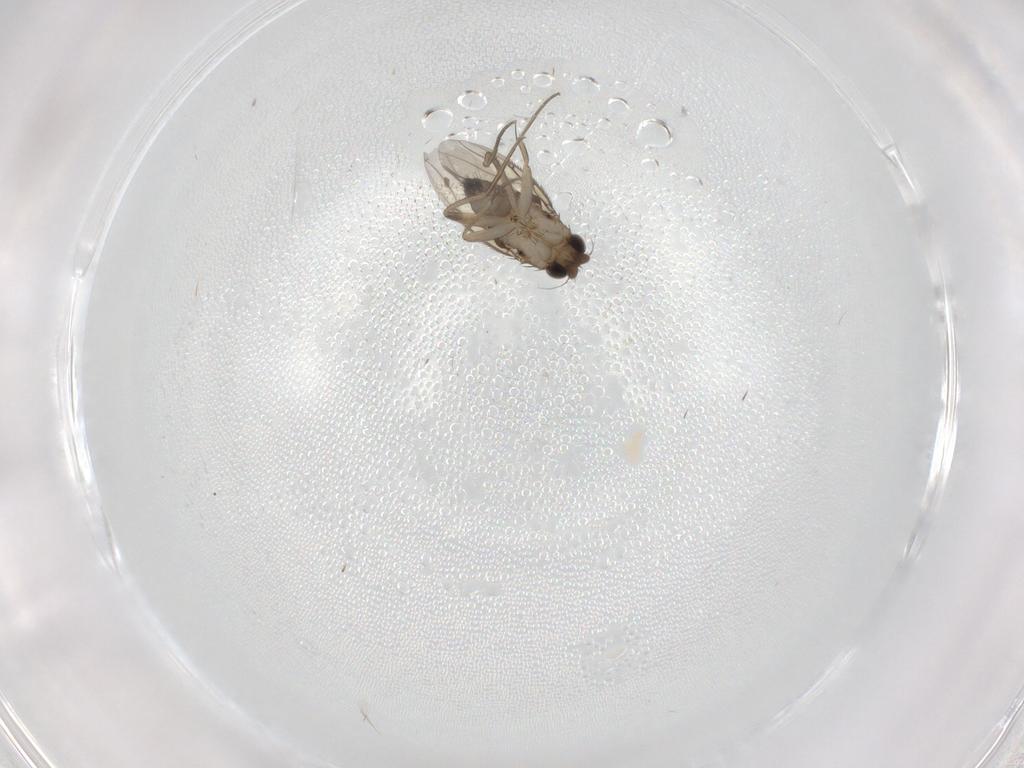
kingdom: Animalia
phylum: Arthropoda
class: Insecta
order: Diptera
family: Phoridae
